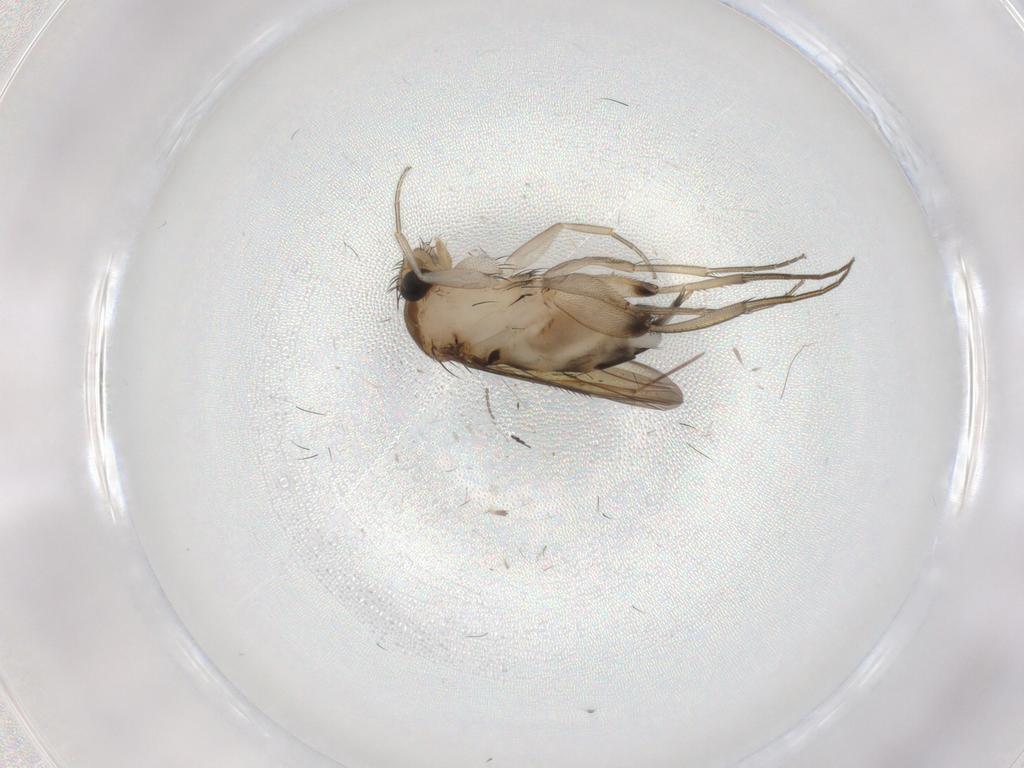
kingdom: Animalia
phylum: Arthropoda
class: Insecta
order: Diptera
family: Phoridae
